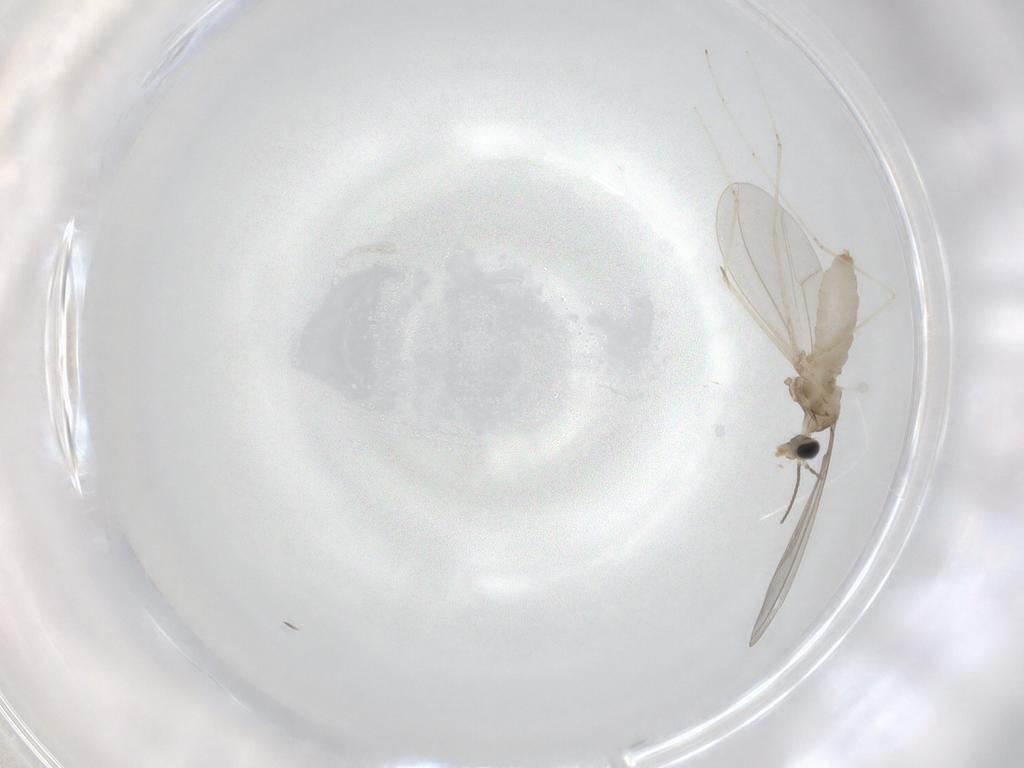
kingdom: Animalia
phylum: Arthropoda
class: Insecta
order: Diptera
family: Cecidomyiidae
